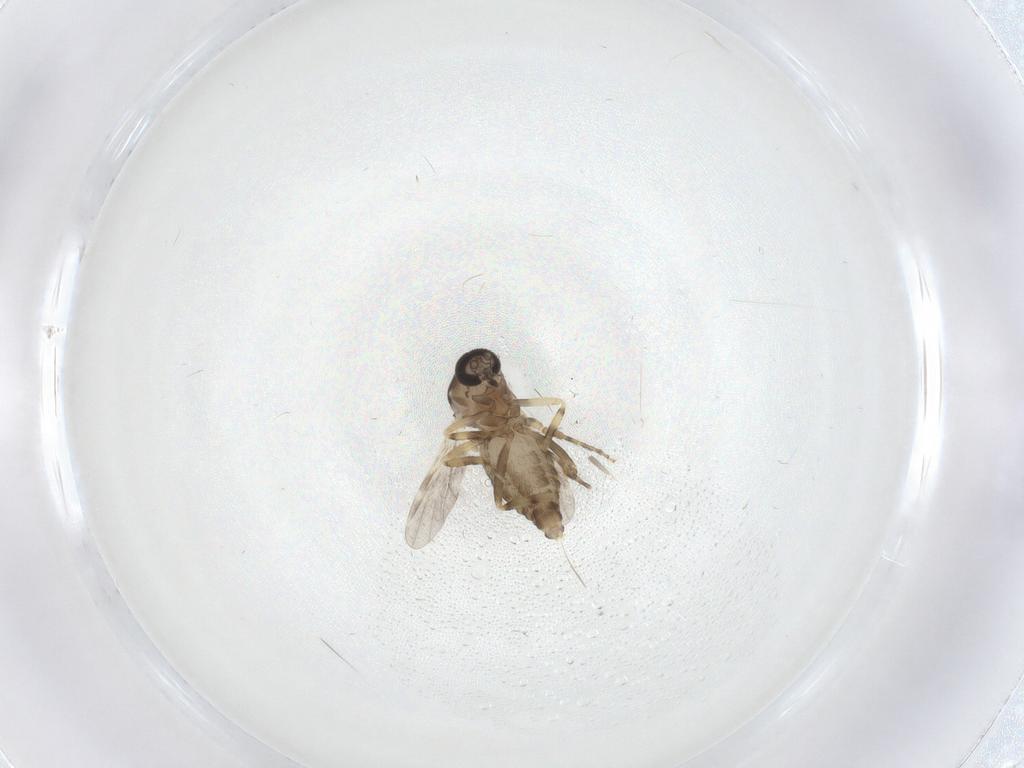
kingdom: Animalia
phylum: Arthropoda
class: Insecta
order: Diptera
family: Ceratopogonidae
